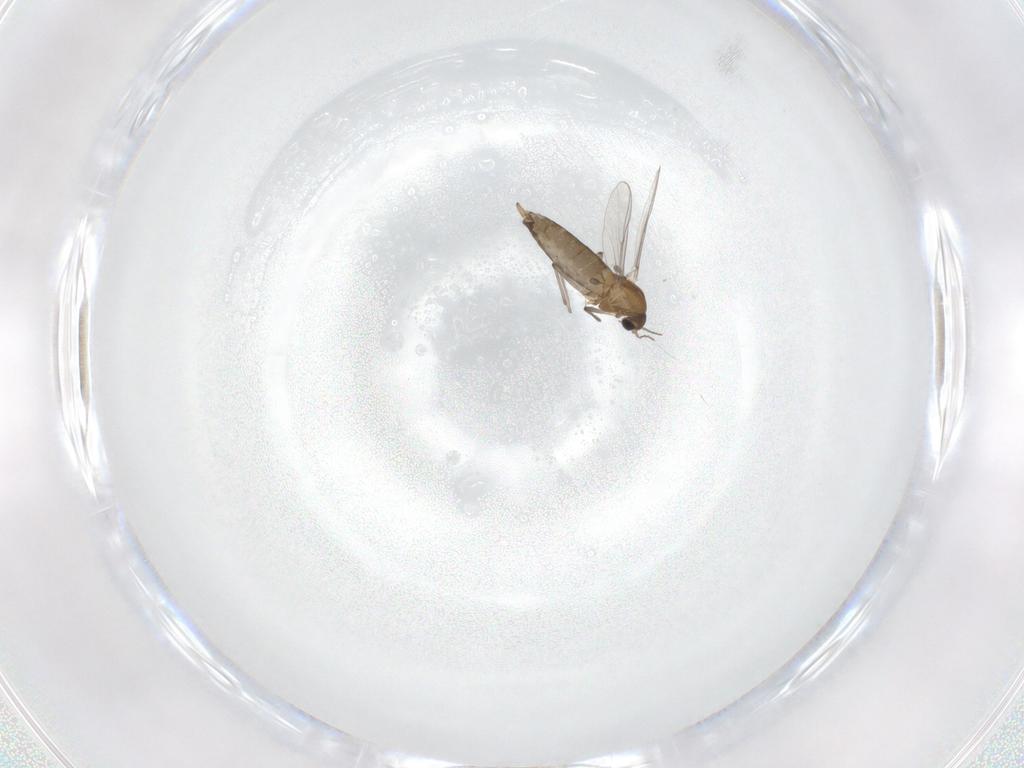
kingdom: Animalia
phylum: Arthropoda
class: Insecta
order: Diptera
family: Chironomidae
